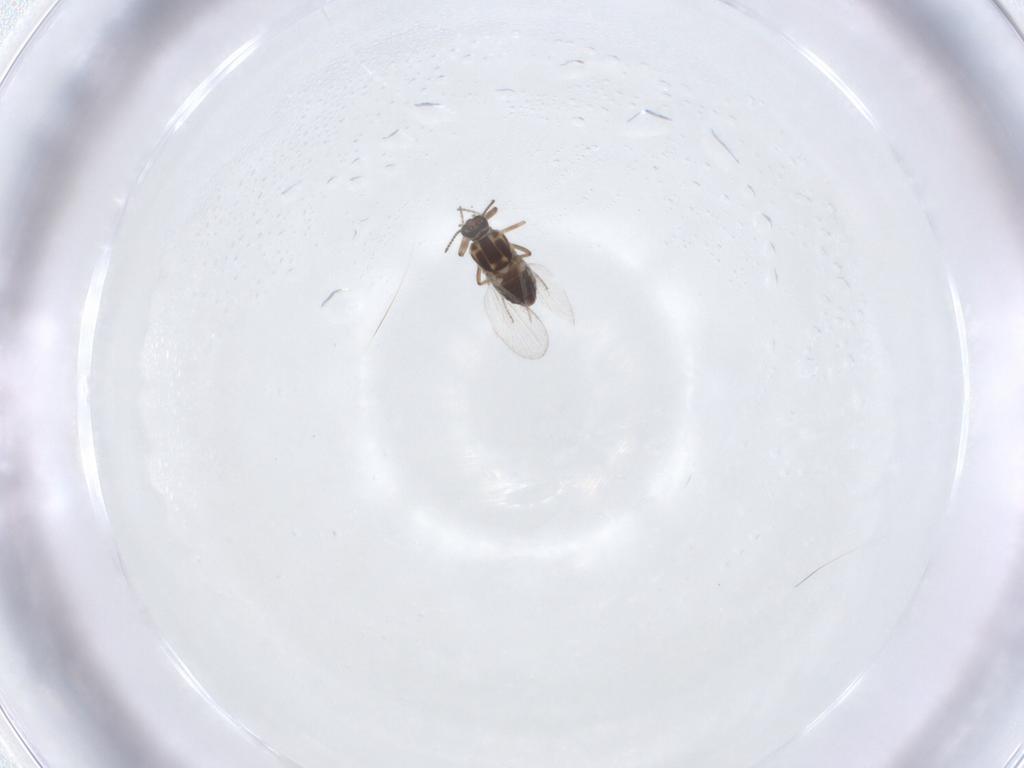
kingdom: Animalia
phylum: Arthropoda
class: Insecta
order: Diptera
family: Ceratopogonidae
